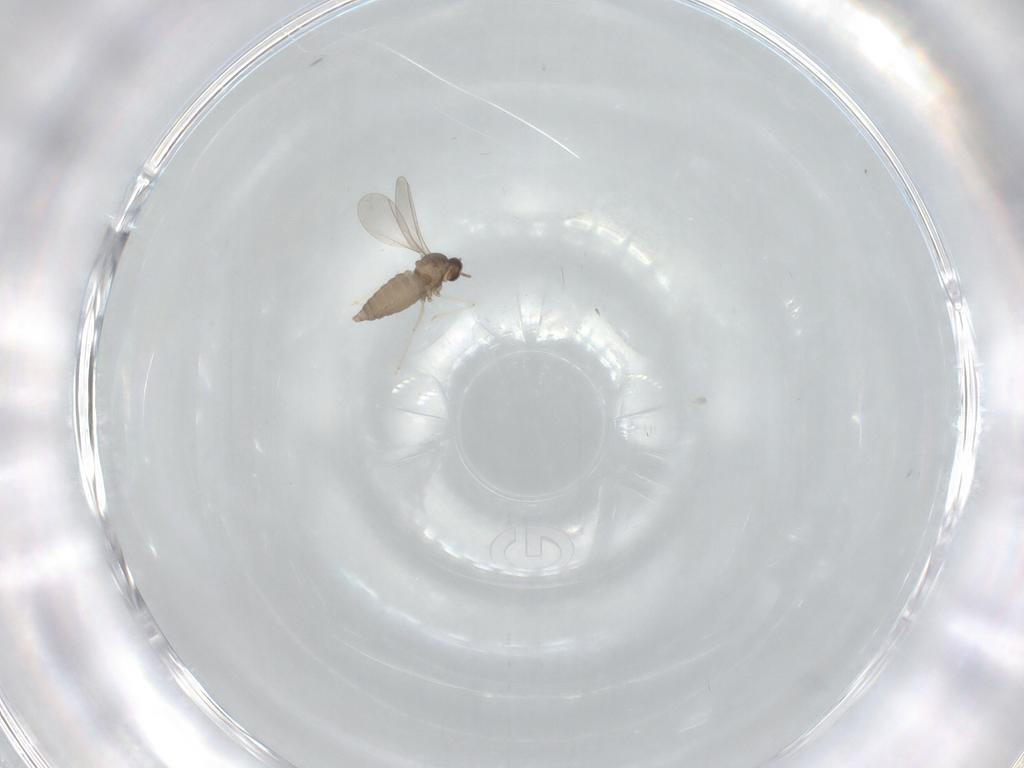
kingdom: Animalia
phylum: Arthropoda
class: Insecta
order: Diptera
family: Cecidomyiidae
